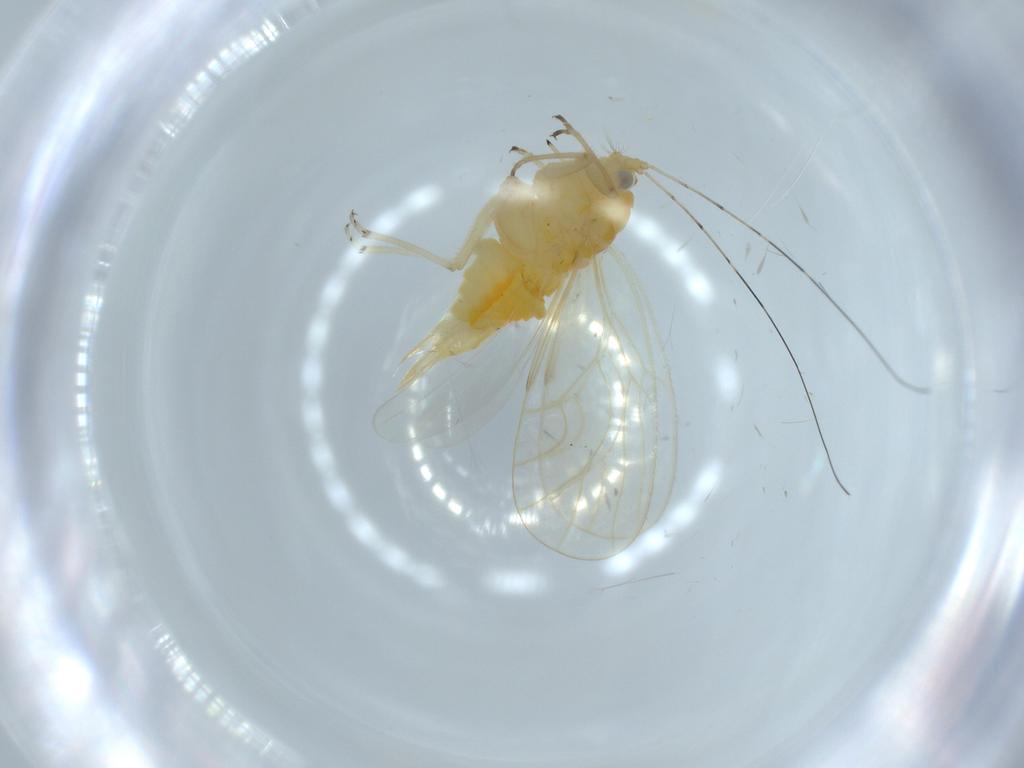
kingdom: Animalia
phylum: Arthropoda
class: Insecta
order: Hemiptera
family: Psyllidae
